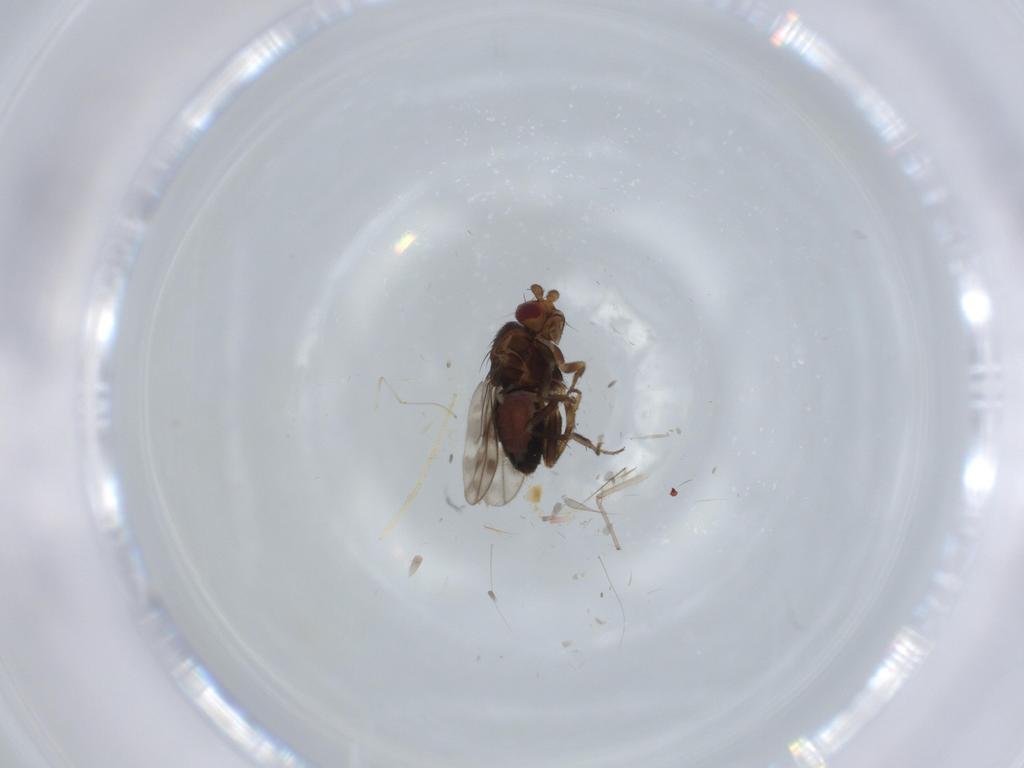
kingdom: Animalia
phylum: Arthropoda
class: Insecta
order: Diptera
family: Sphaeroceridae
